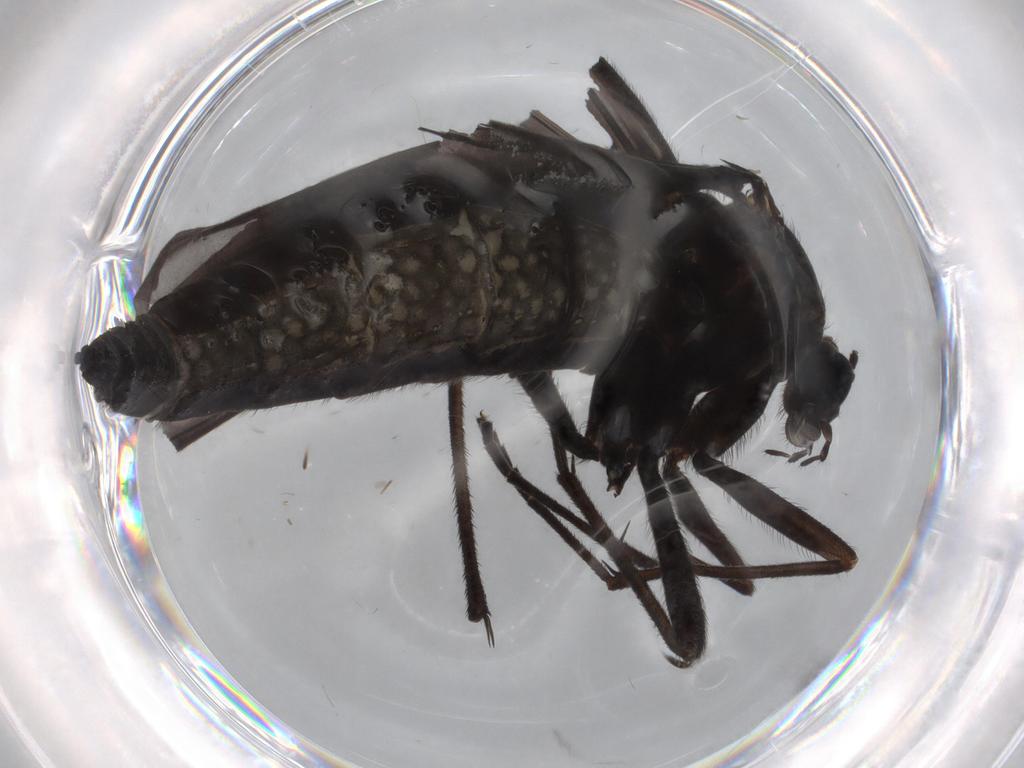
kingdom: Animalia
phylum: Arthropoda
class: Insecta
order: Diptera
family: Sciaridae
